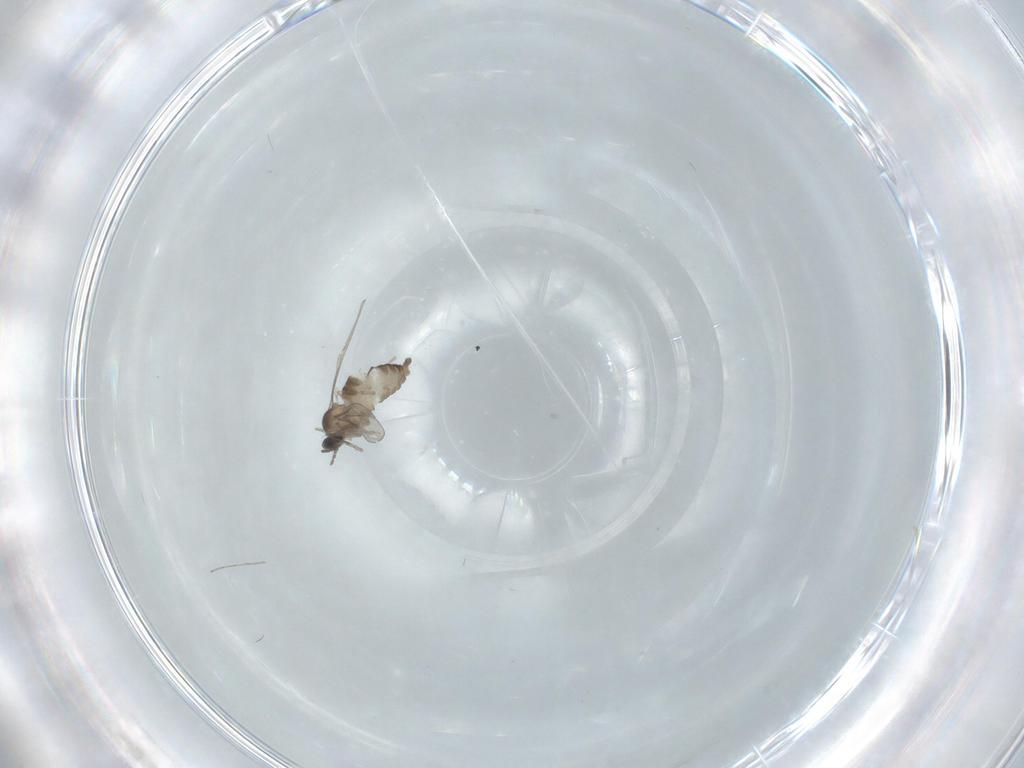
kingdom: Animalia
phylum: Arthropoda
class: Insecta
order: Diptera
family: Cecidomyiidae
